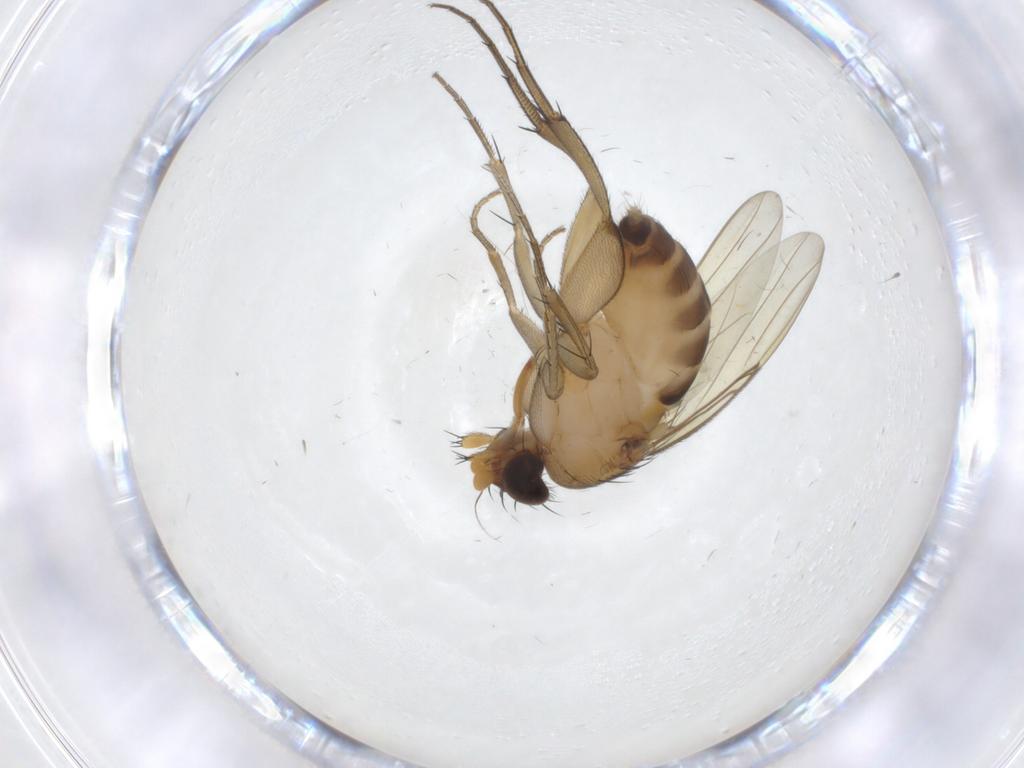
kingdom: Animalia
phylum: Arthropoda
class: Insecta
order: Diptera
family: Phoridae
